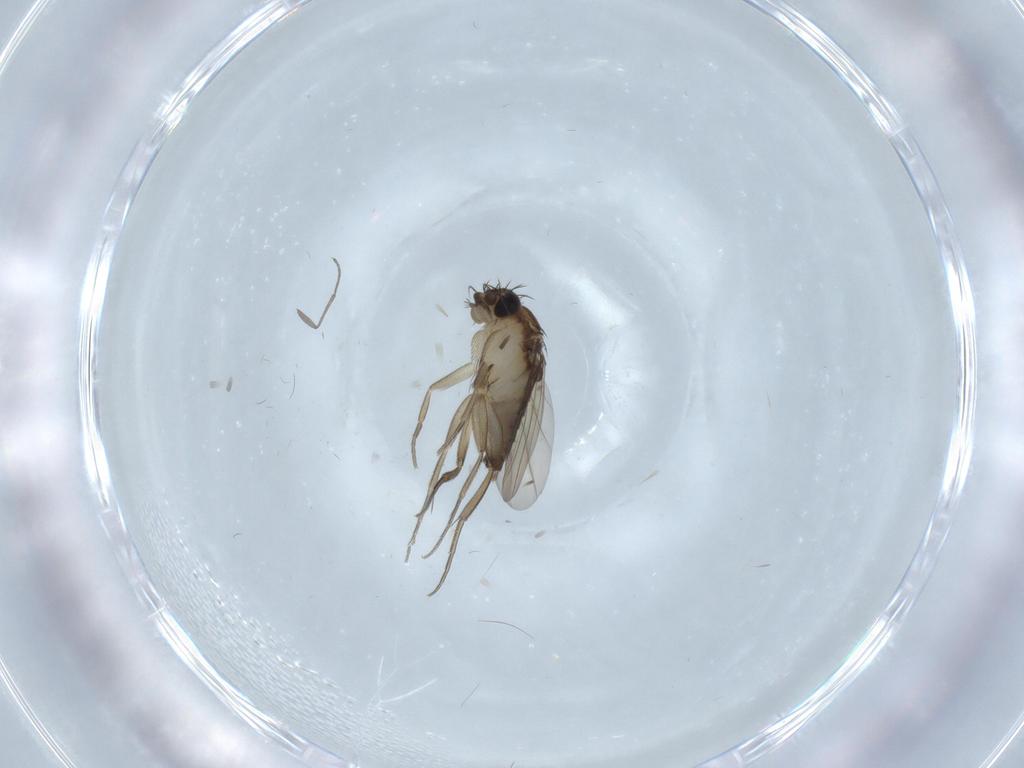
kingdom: Animalia
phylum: Arthropoda
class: Insecta
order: Diptera
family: Phoridae
